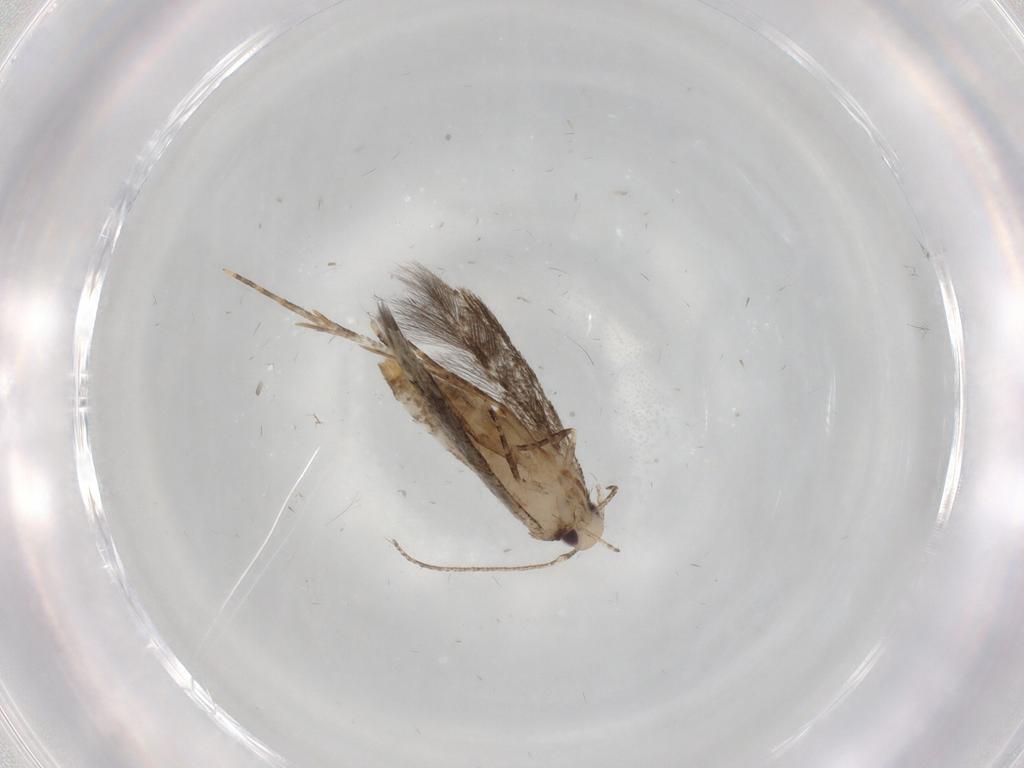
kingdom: Animalia
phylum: Arthropoda
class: Insecta
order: Lepidoptera
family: Cosmopterigidae
